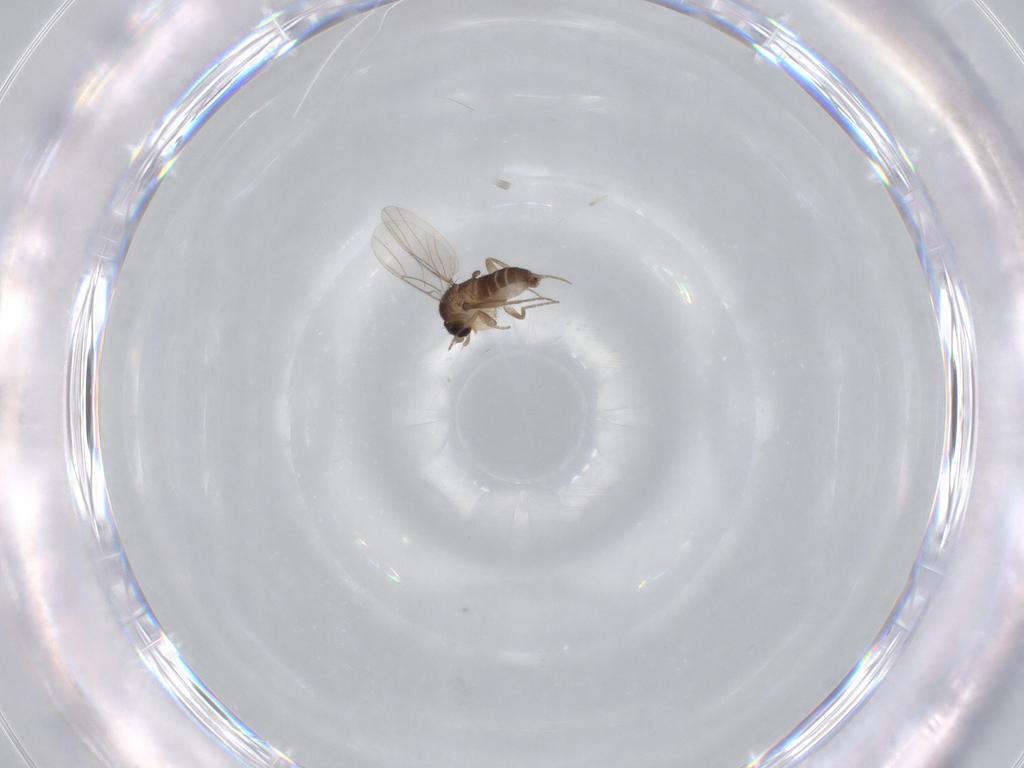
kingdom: Animalia
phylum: Arthropoda
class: Insecta
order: Diptera
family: Phoridae
